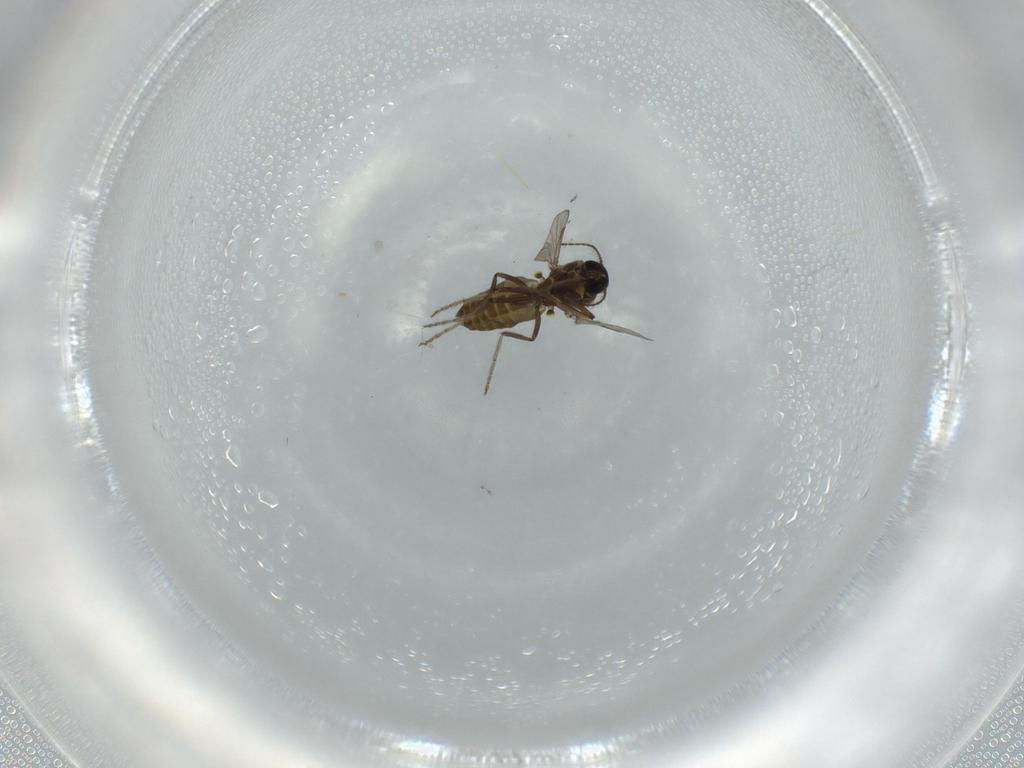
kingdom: Animalia
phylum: Arthropoda
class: Insecta
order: Diptera
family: Ceratopogonidae
